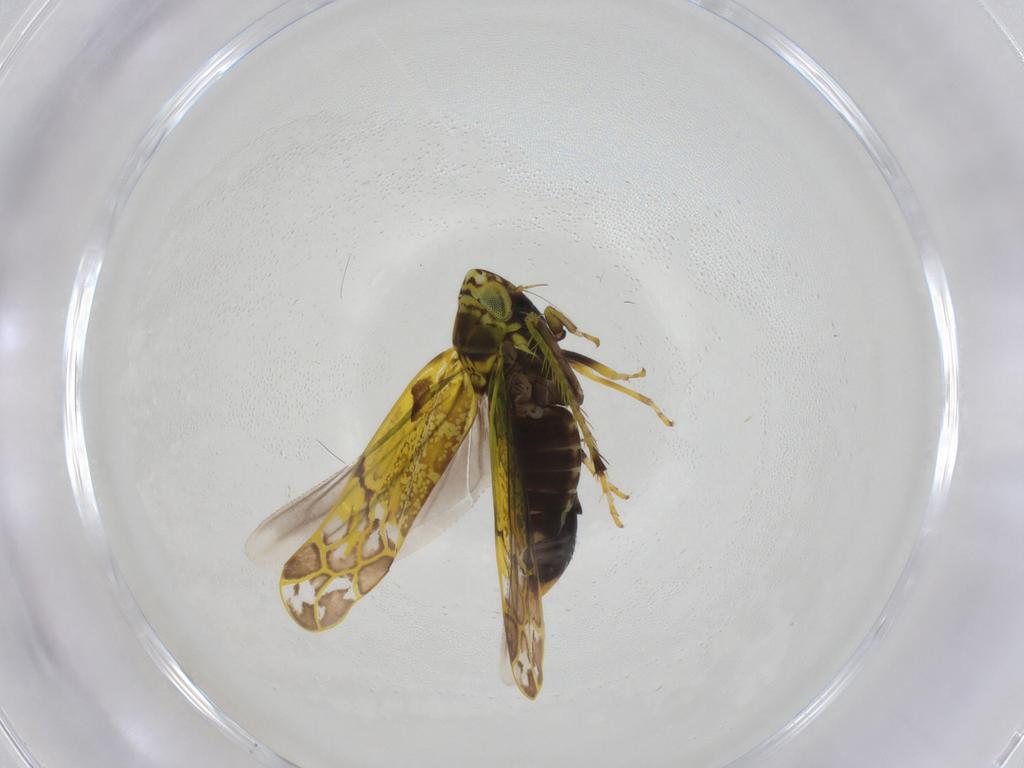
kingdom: Animalia
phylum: Arthropoda
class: Insecta
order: Hemiptera
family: Cicadellidae
